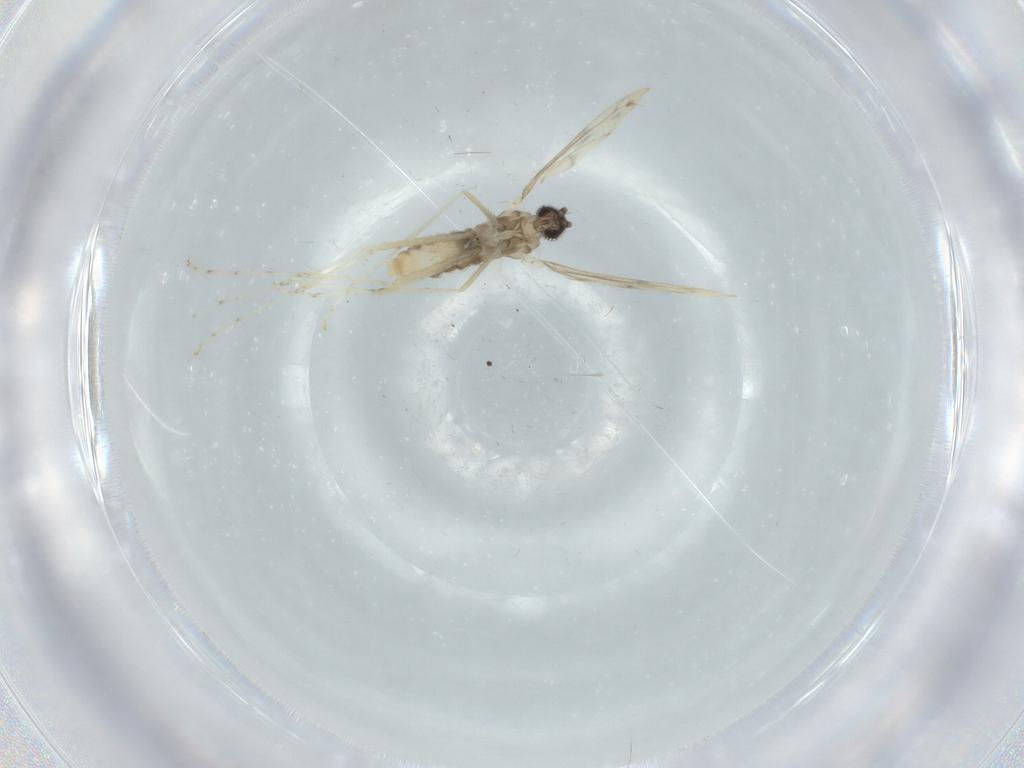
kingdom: Animalia
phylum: Arthropoda
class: Insecta
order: Diptera
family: Cecidomyiidae
